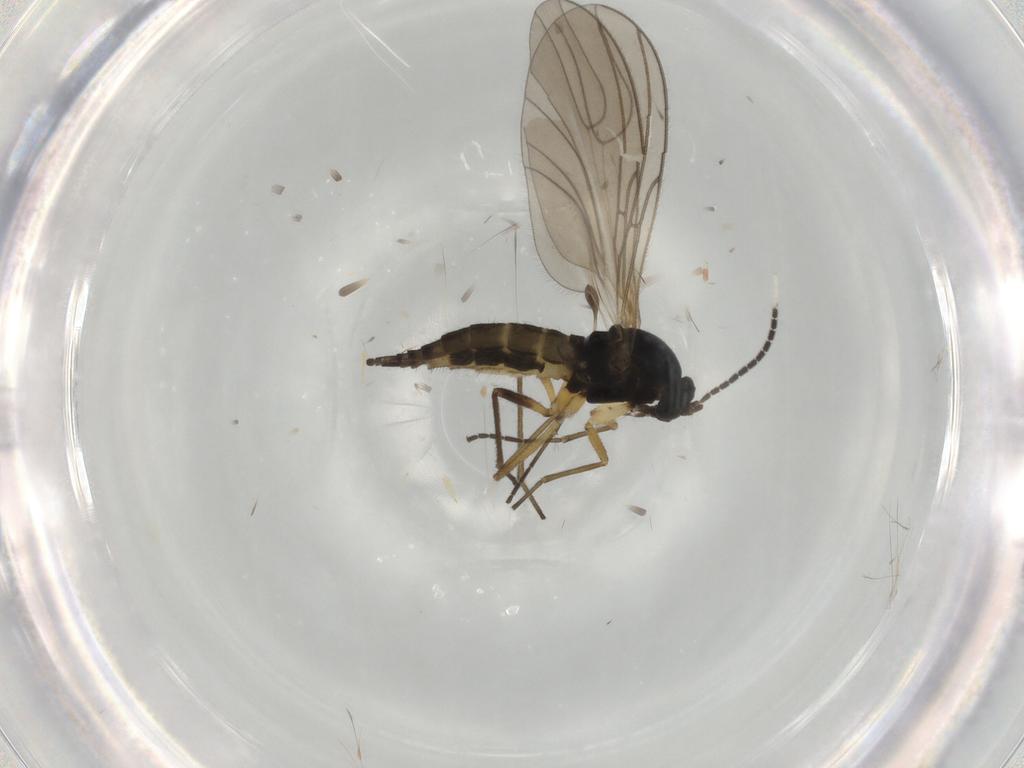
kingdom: Animalia
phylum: Arthropoda
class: Insecta
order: Diptera
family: Sciaridae
